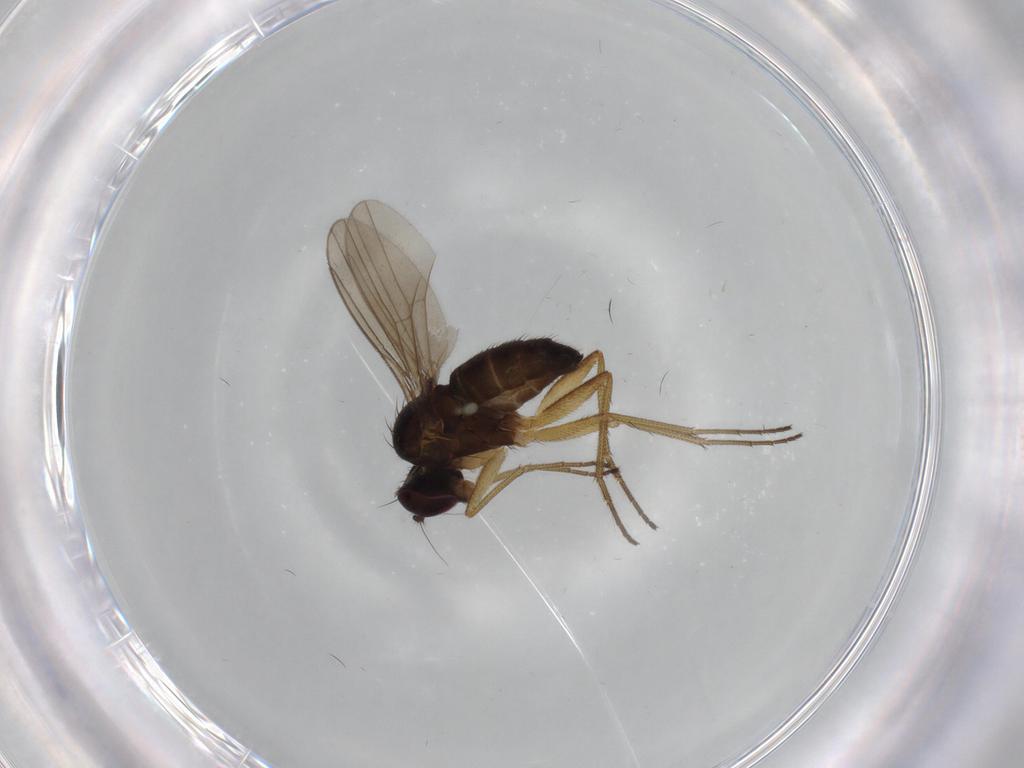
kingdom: Animalia
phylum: Arthropoda
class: Insecta
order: Diptera
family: Dolichopodidae
